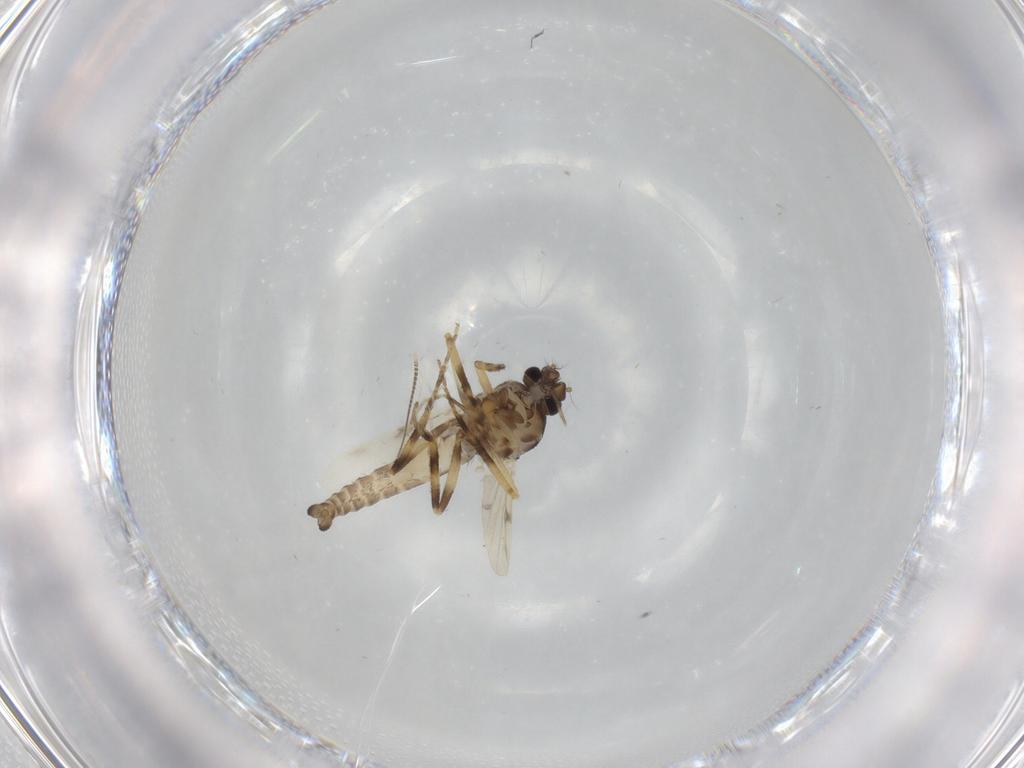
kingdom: Animalia
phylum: Arthropoda
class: Insecta
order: Diptera
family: Ceratopogonidae
